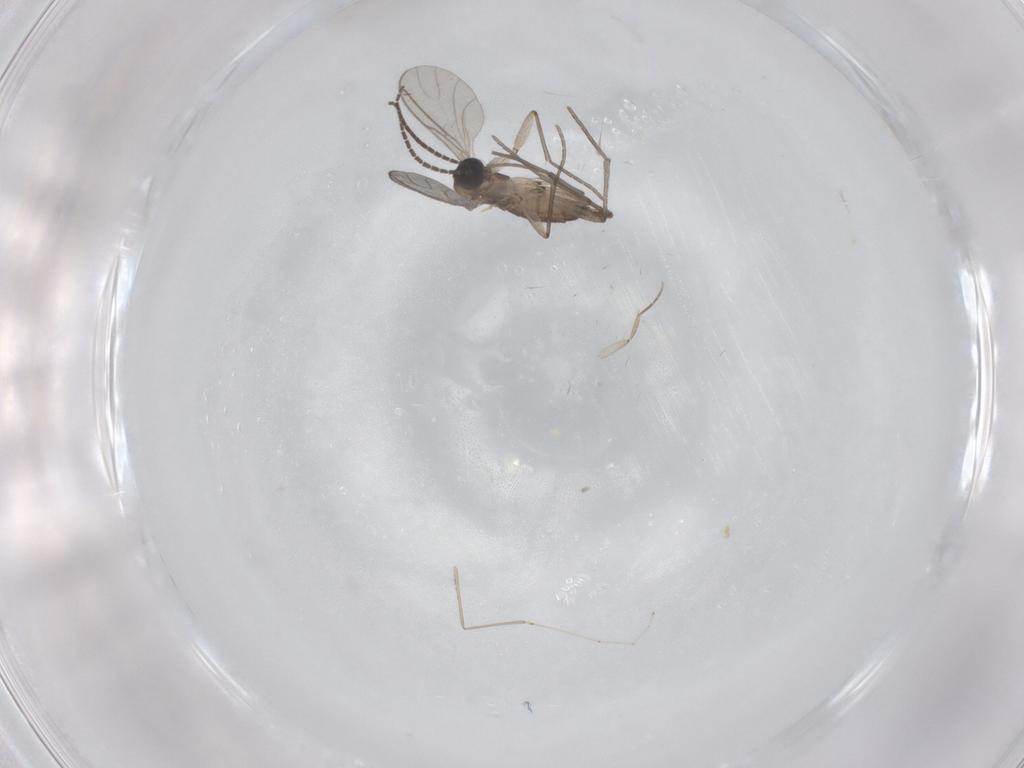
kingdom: Animalia
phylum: Arthropoda
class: Insecta
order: Diptera
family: Sciaridae
